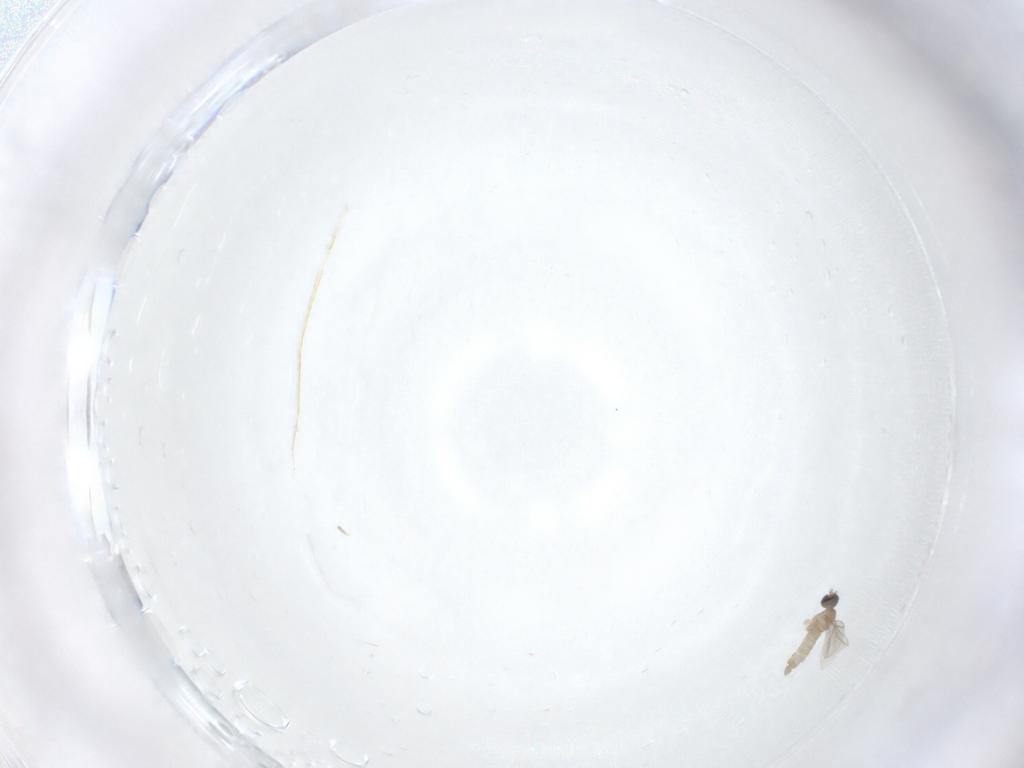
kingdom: Animalia
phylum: Arthropoda
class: Insecta
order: Diptera
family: Cecidomyiidae
